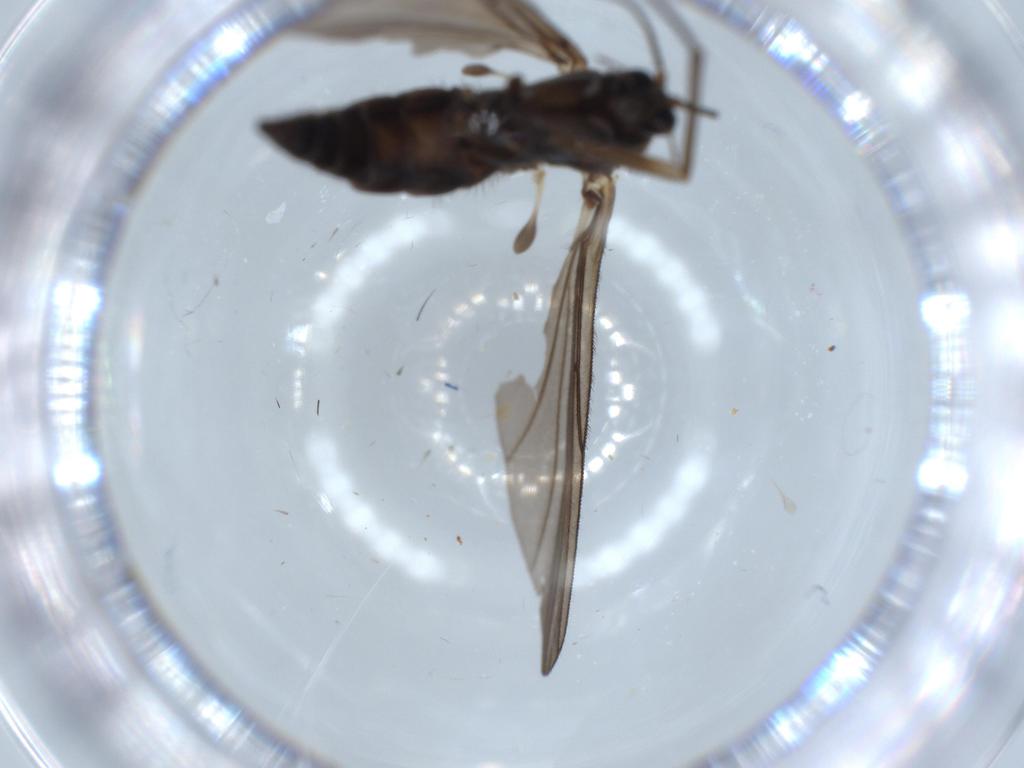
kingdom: Animalia
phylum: Arthropoda
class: Insecta
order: Diptera
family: Sciaridae
